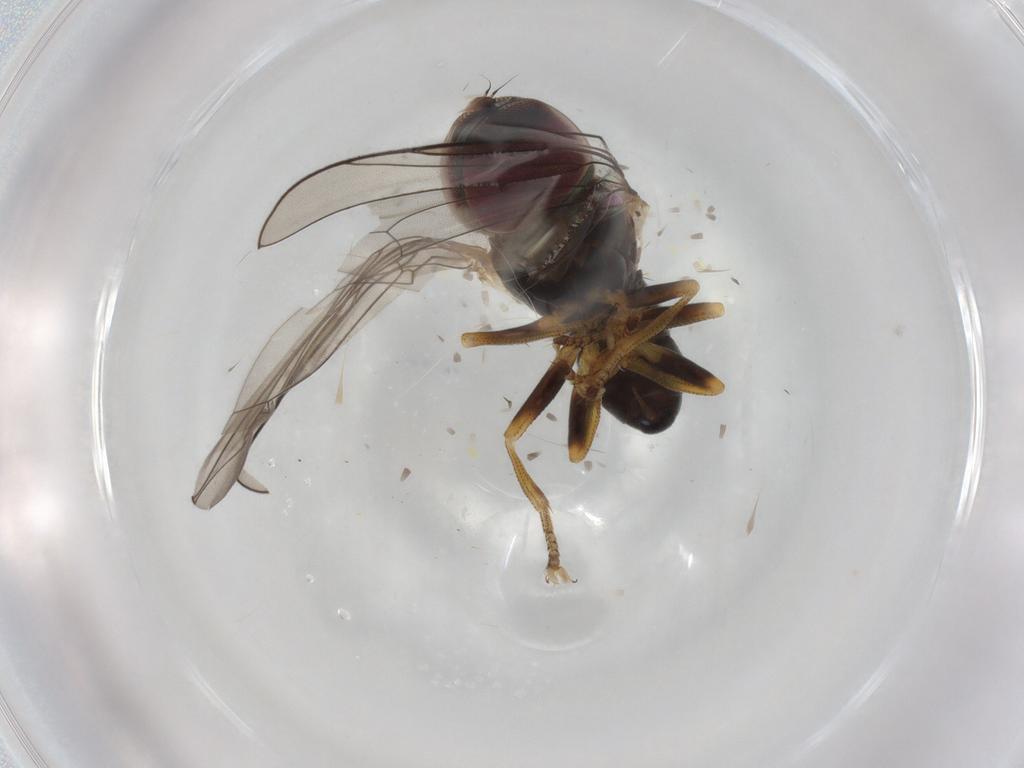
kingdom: Animalia
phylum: Arthropoda
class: Insecta
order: Diptera
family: Pipunculidae
